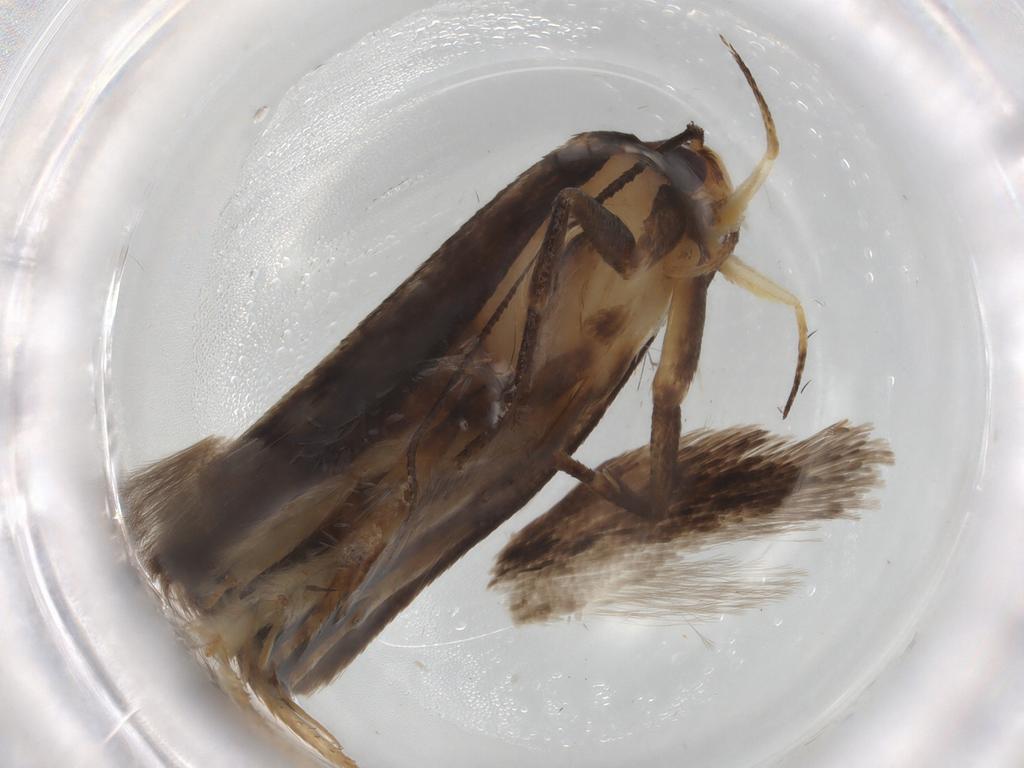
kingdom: Animalia
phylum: Arthropoda
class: Insecta
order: Lepidoptera
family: Gelechiidae
